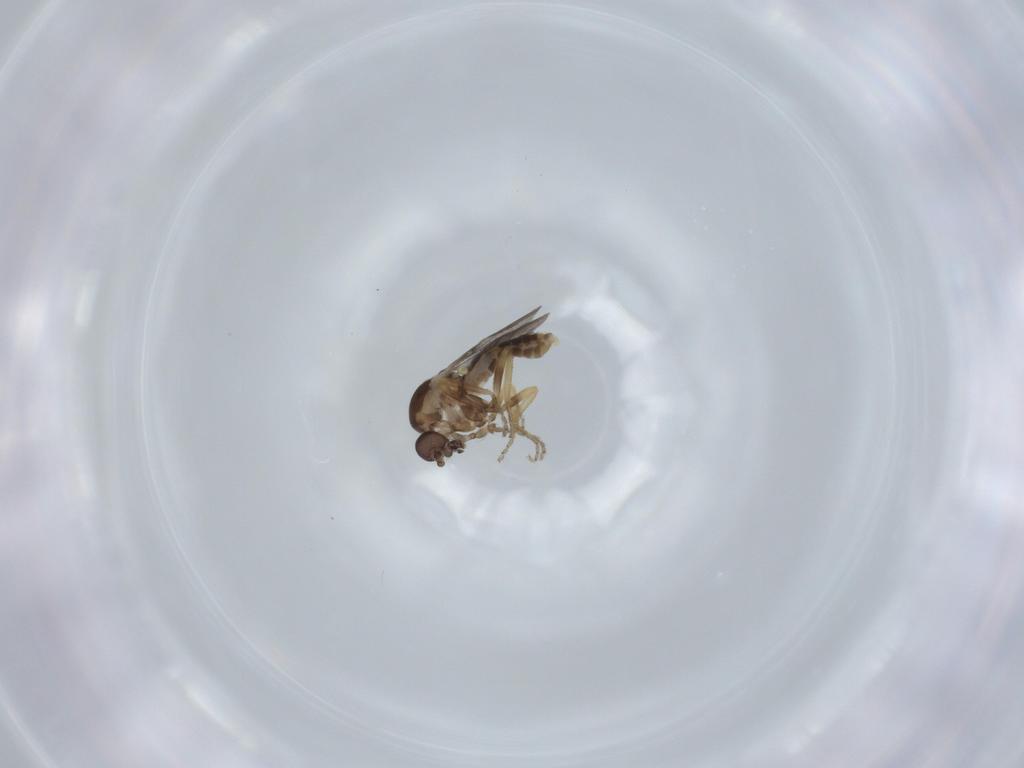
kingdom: Animalia
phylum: Arthropoda
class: Insecta
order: Diptera
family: Ceratopogonidae
